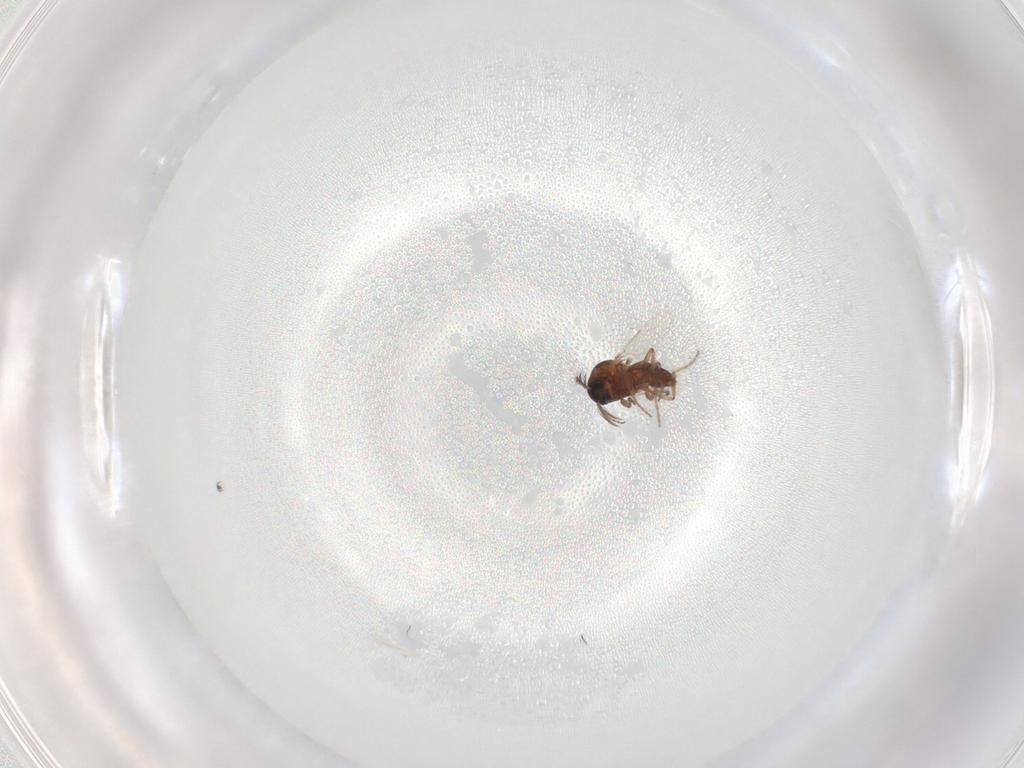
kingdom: Animalia
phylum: Arthropoda
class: Insecta
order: Diptera
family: Ceratopogonidae
